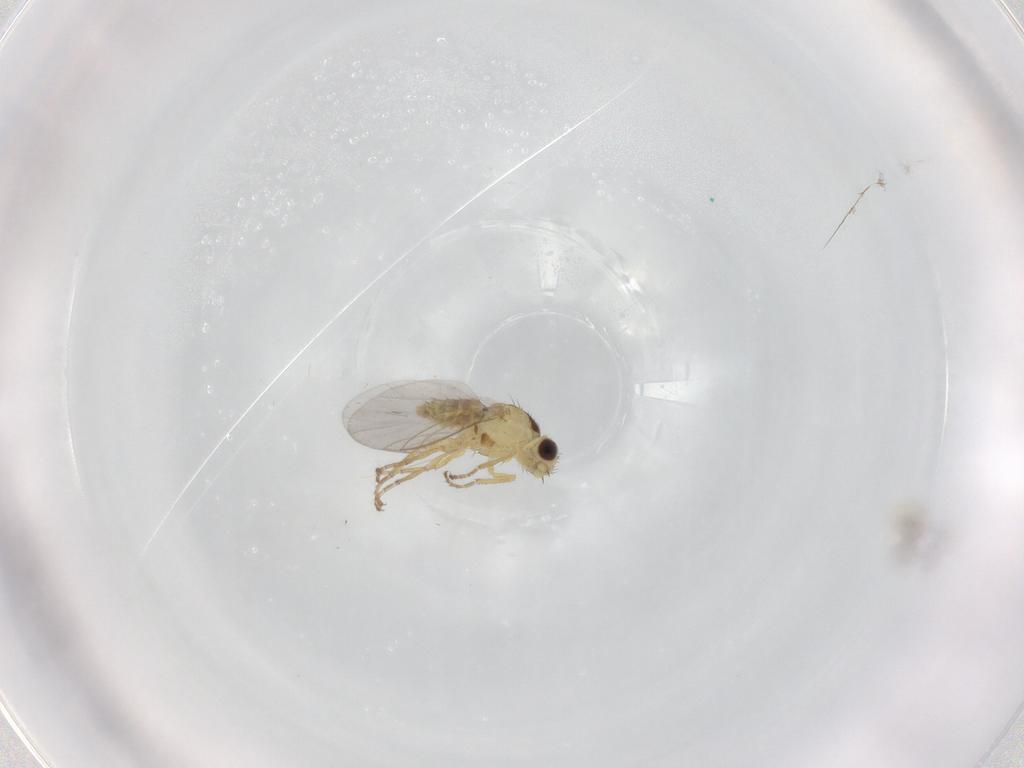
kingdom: Animalia
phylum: Arthropoda
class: Insecta
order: Diptera
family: Agromyzidae
